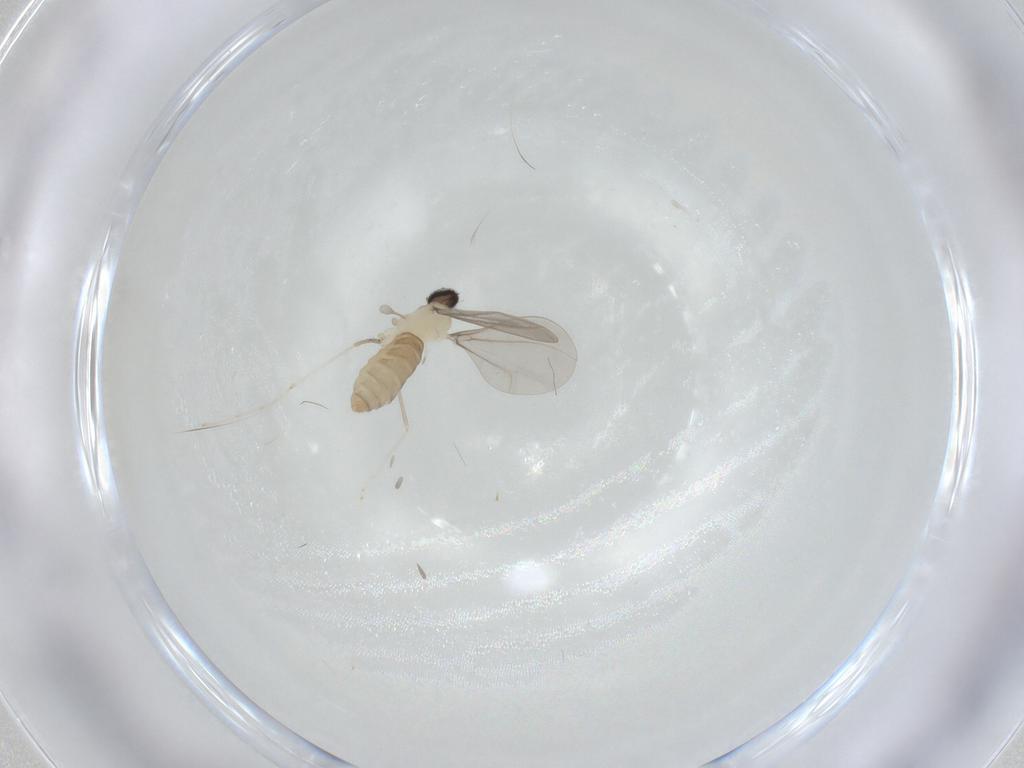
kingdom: Animalia
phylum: Arthropoda
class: Insecta
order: Diptera
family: Cecidomyiidae
